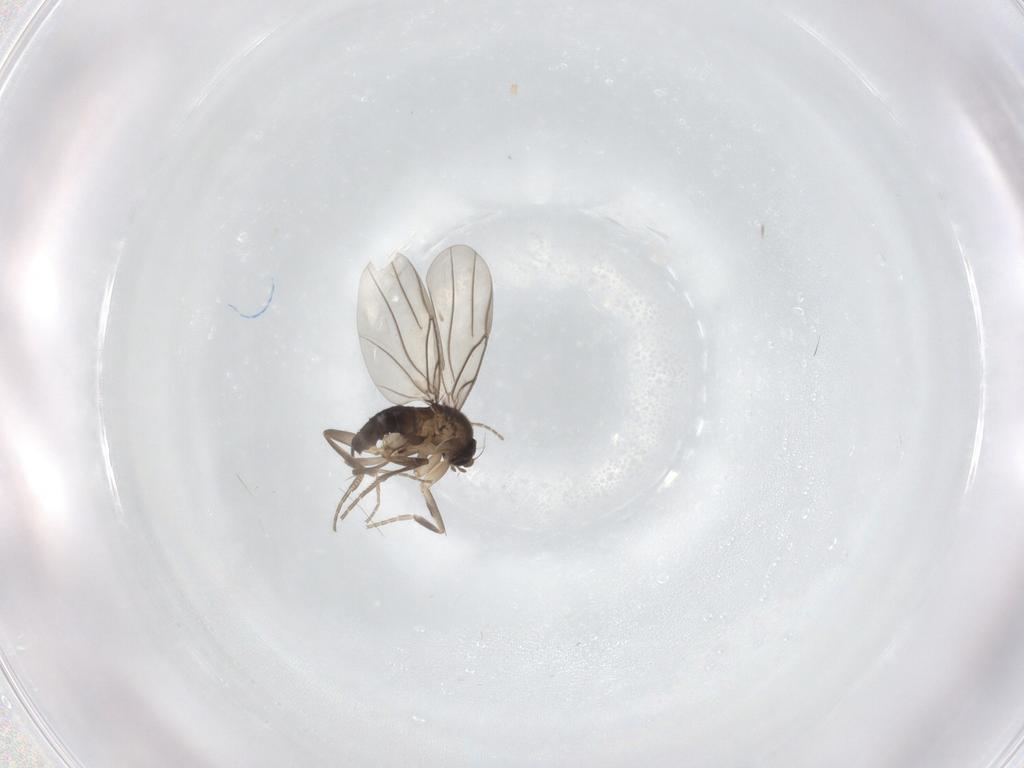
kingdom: Animalia
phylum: Arthropoda
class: Insecta
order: Diptera
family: Phoridae
